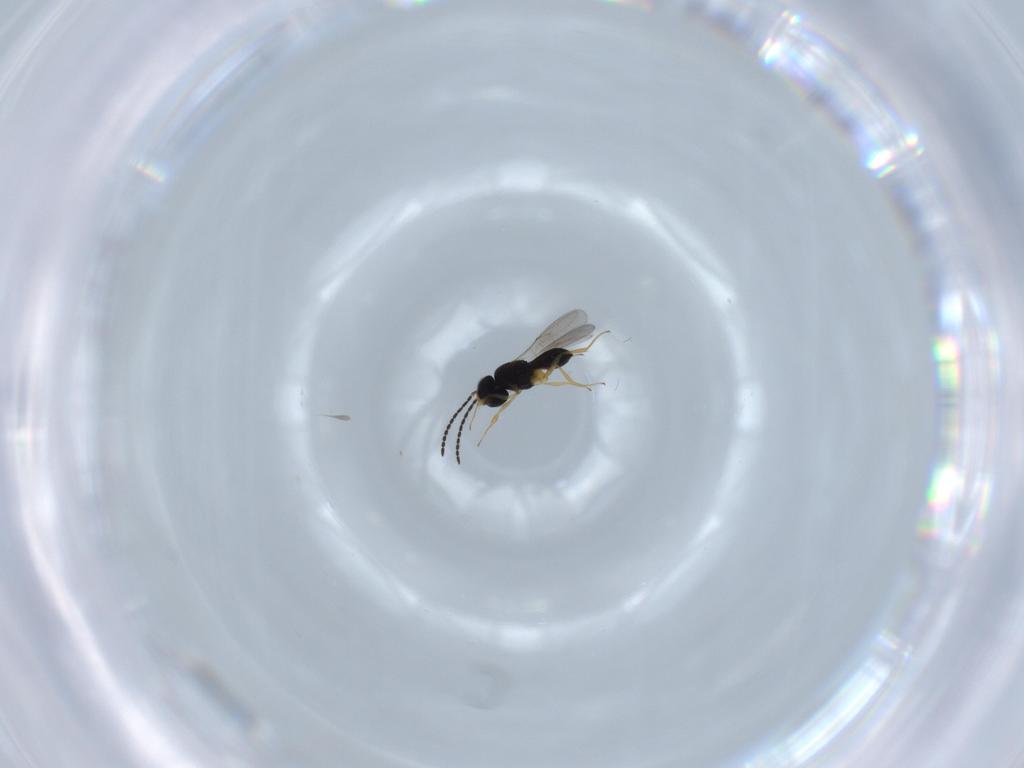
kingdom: Animalia
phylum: Arthropoda
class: Insecta
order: Hymenoptera
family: Scelionidae
